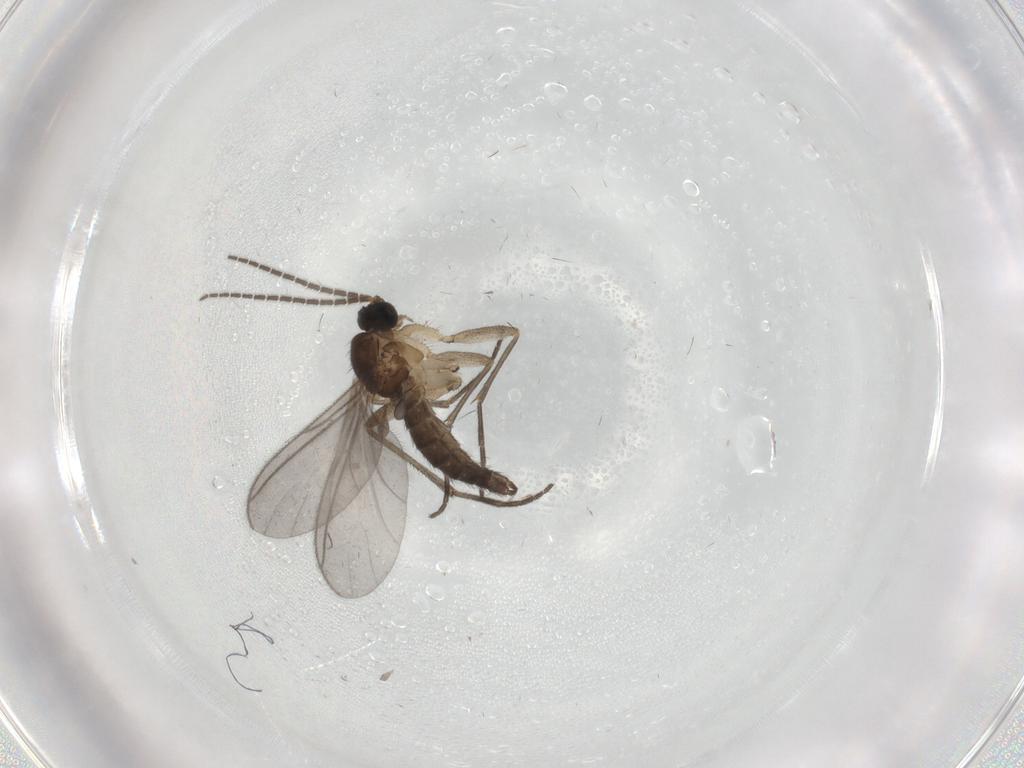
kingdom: Animalia
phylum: Arthropoda
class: Insecta
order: Diptera
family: Sciaridae
